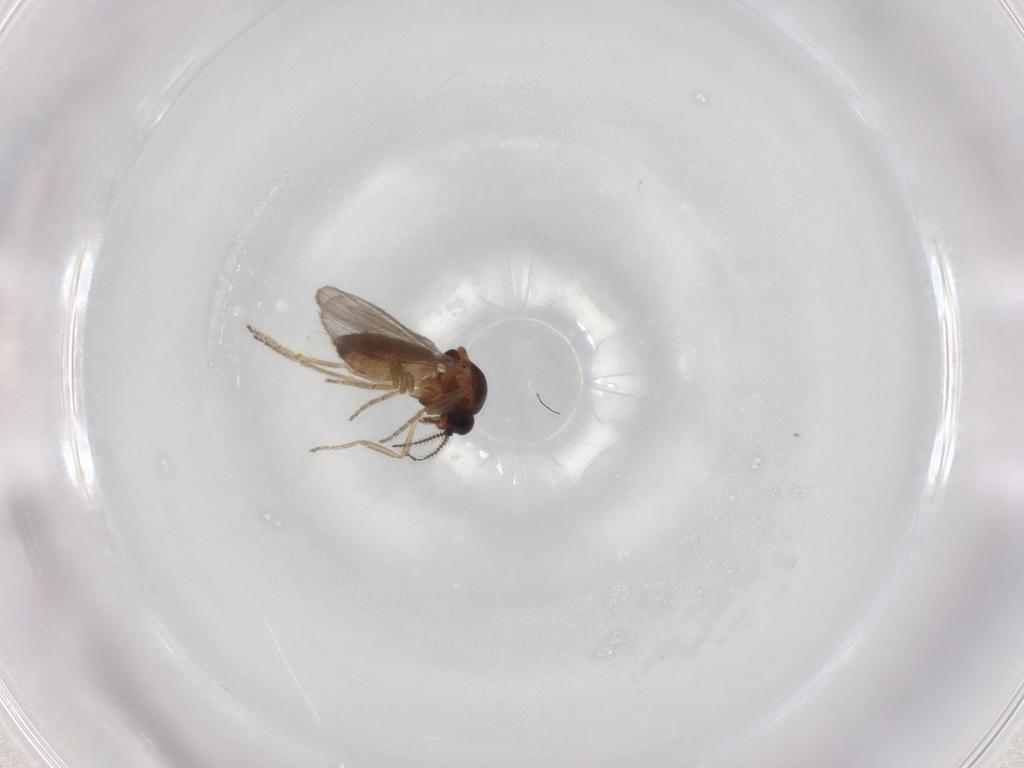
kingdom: Animalia
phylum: Arthropoda
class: Insecta
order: Diptera
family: Ceratopogonidae
